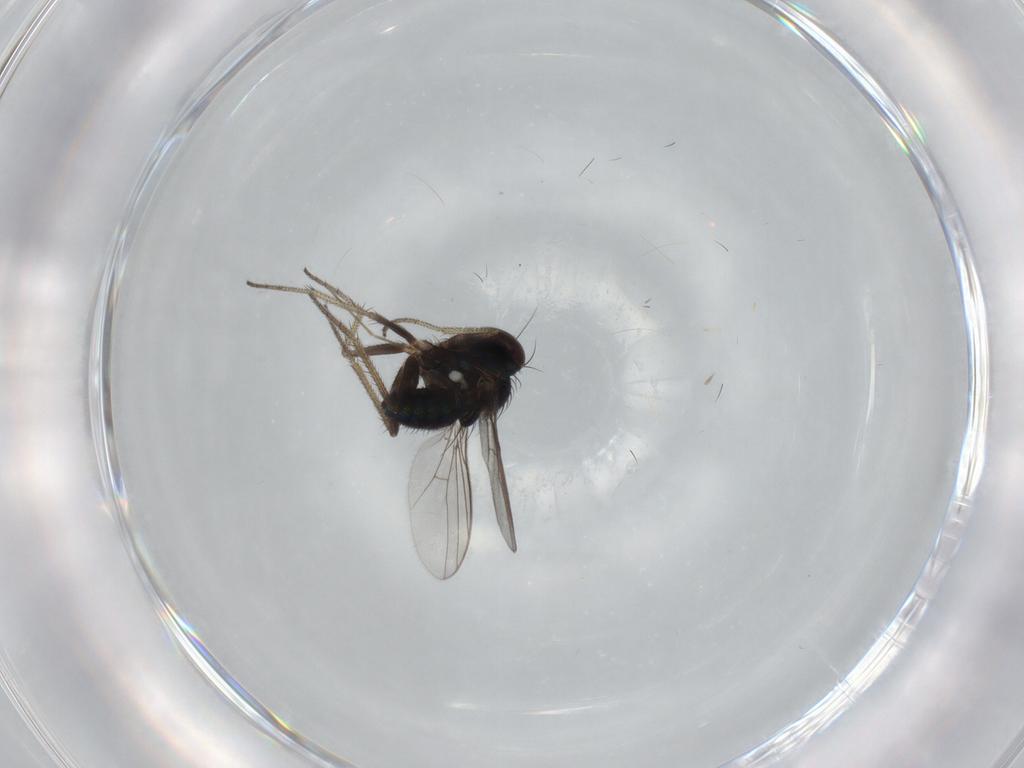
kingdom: Animalia
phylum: Arthropoda
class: Insecta
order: Diptera
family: Dolichopodidae
